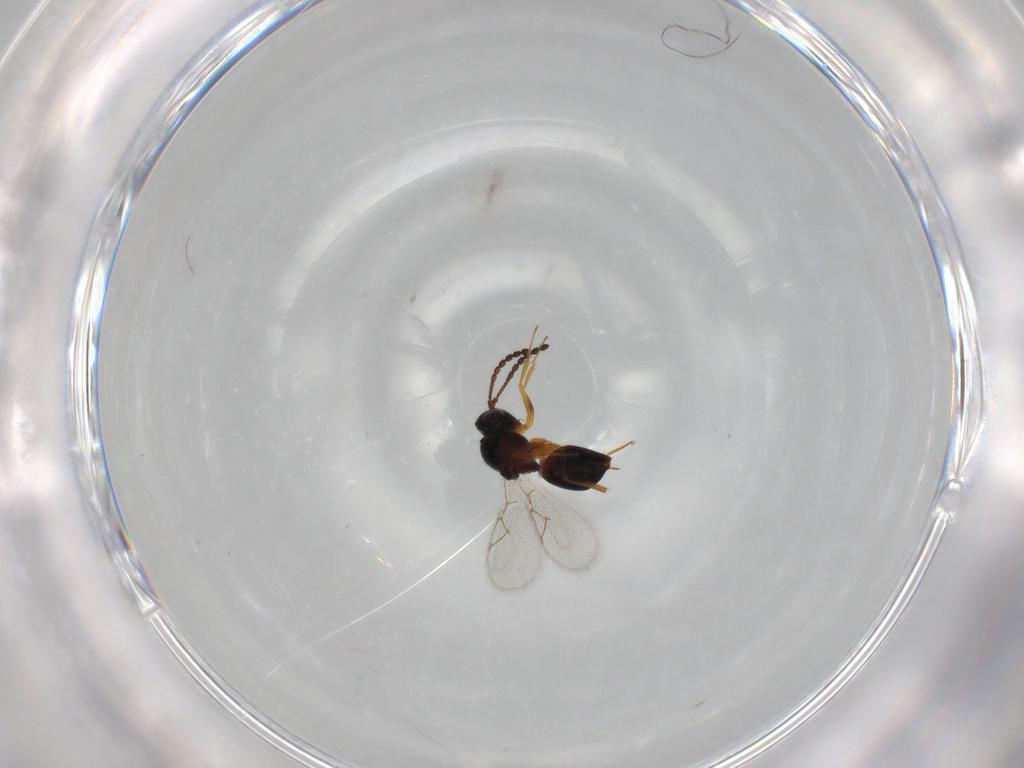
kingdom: Animalia
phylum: Arthropoda
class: Insecta
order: Hymenoptera
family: Figitidae
